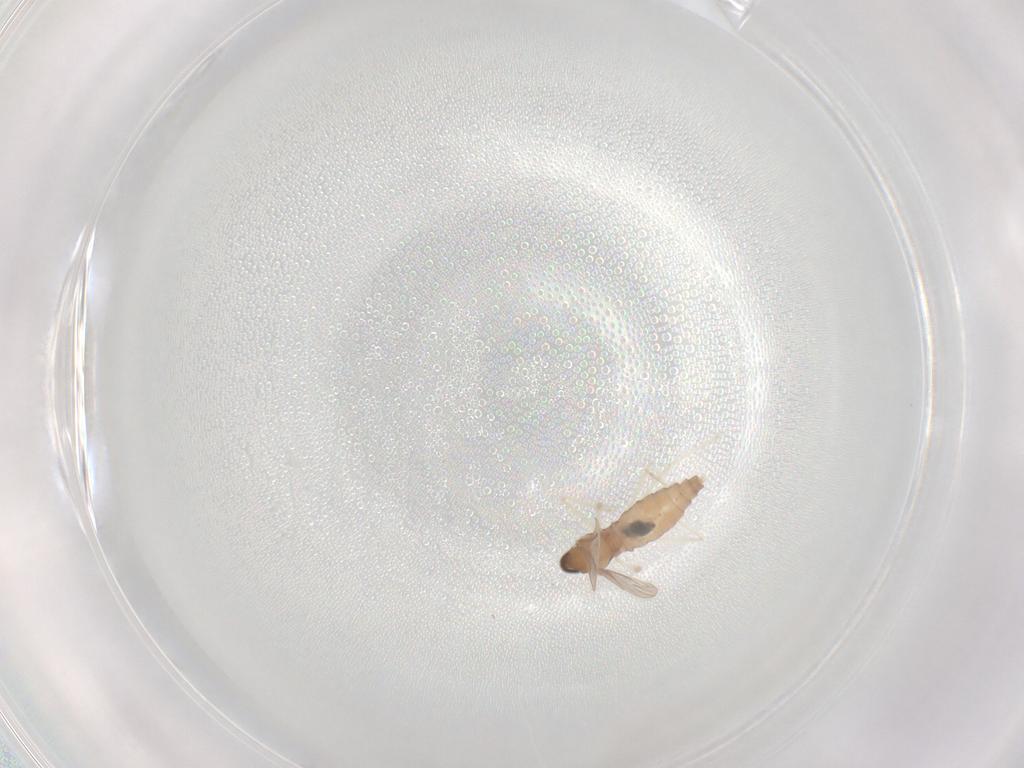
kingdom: Animalia
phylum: Arthropoda
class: Insecta
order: Diptera
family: Cecidomyiidae
